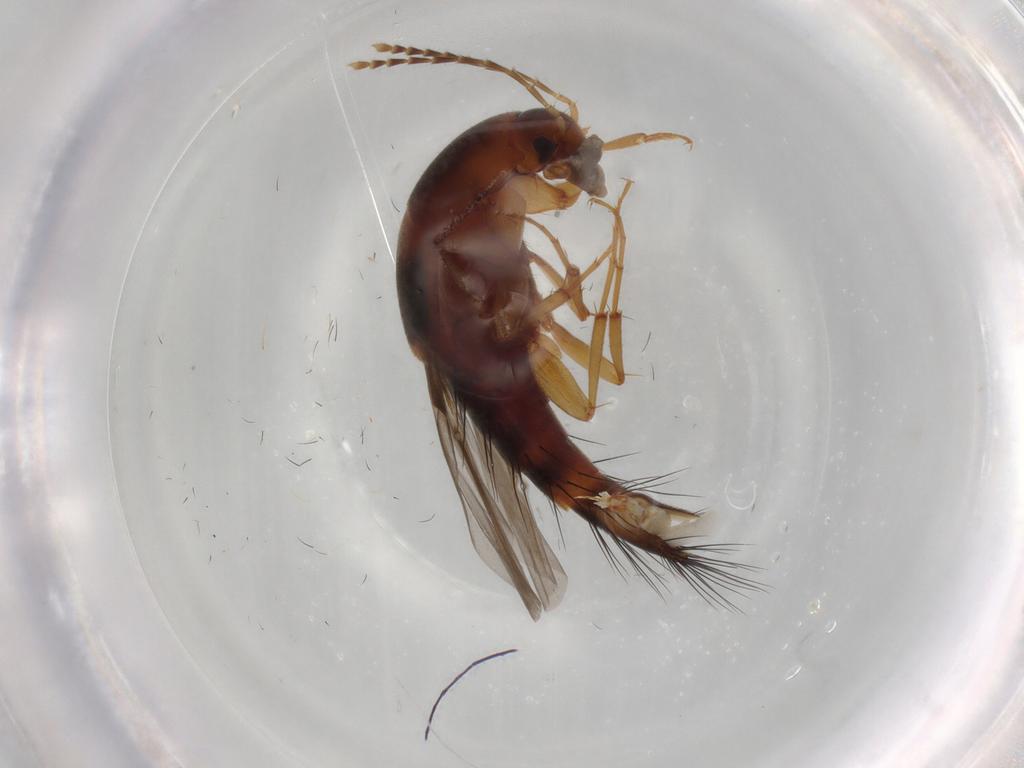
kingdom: Animalia
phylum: Arthropoda
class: Insecta
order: Coleoptera
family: Staphylinidae
